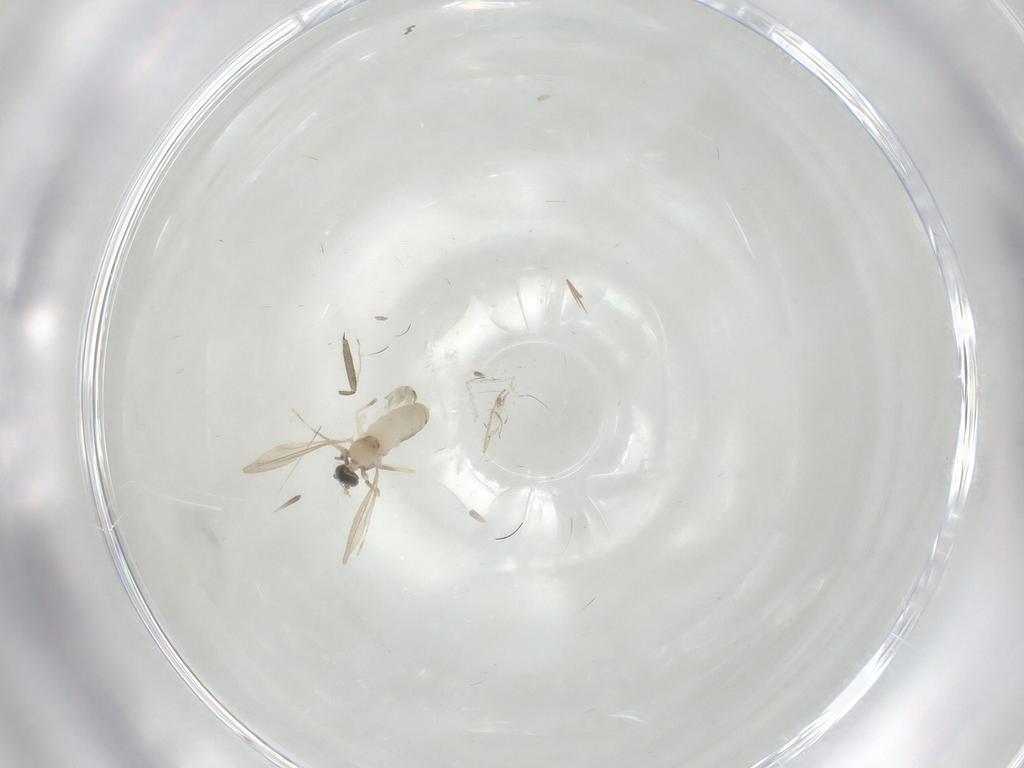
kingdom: Animalia
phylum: Arthropoda
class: Insecta
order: Diptera
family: Cecidomyiidae
